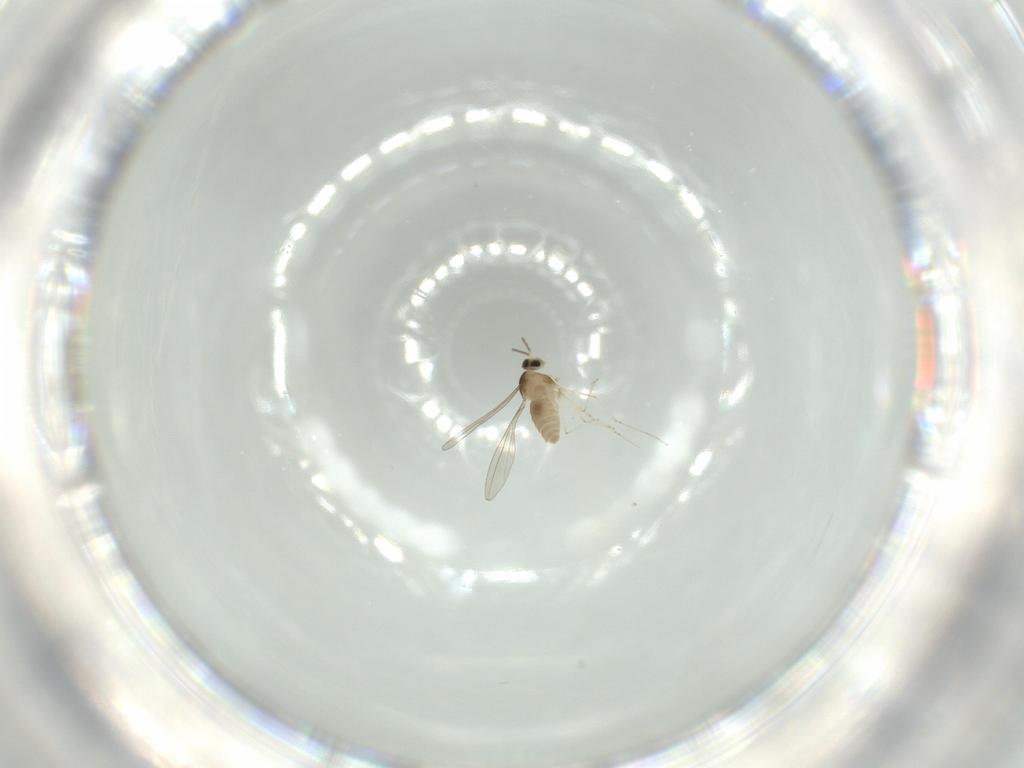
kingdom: Animalia
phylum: Arthropoda
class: Insecta
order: Diptera
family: Cecidomyiidae
